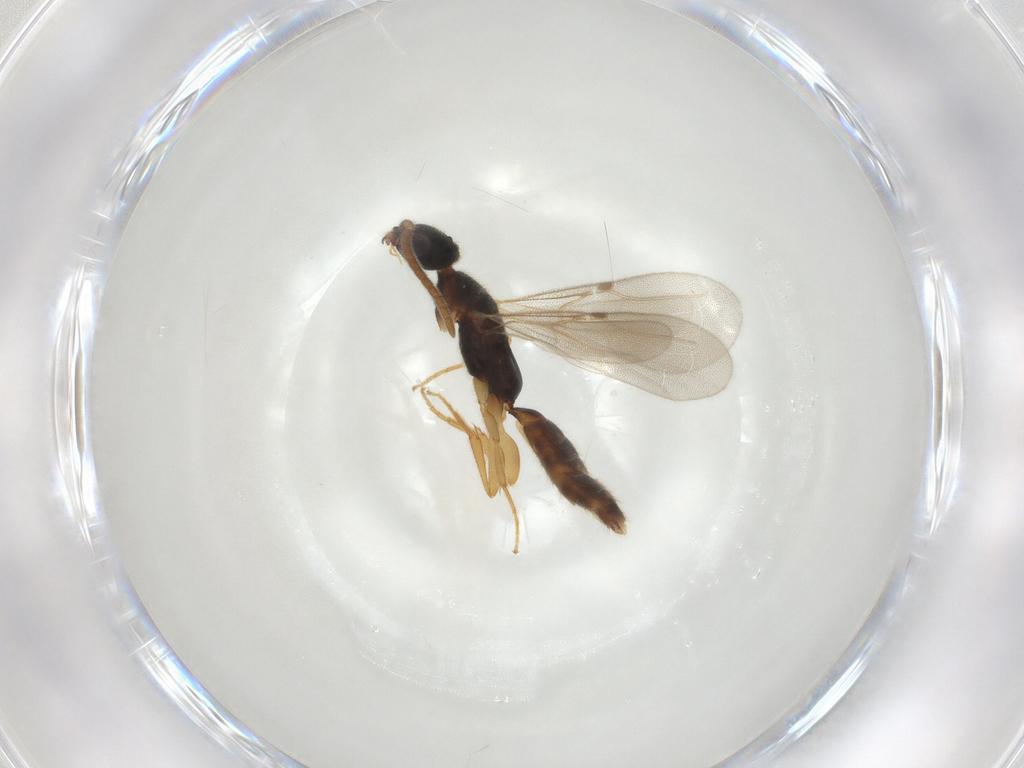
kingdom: Animalia
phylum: Arthropoda
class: Insecta
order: Hymenoptera
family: Bethylidae
